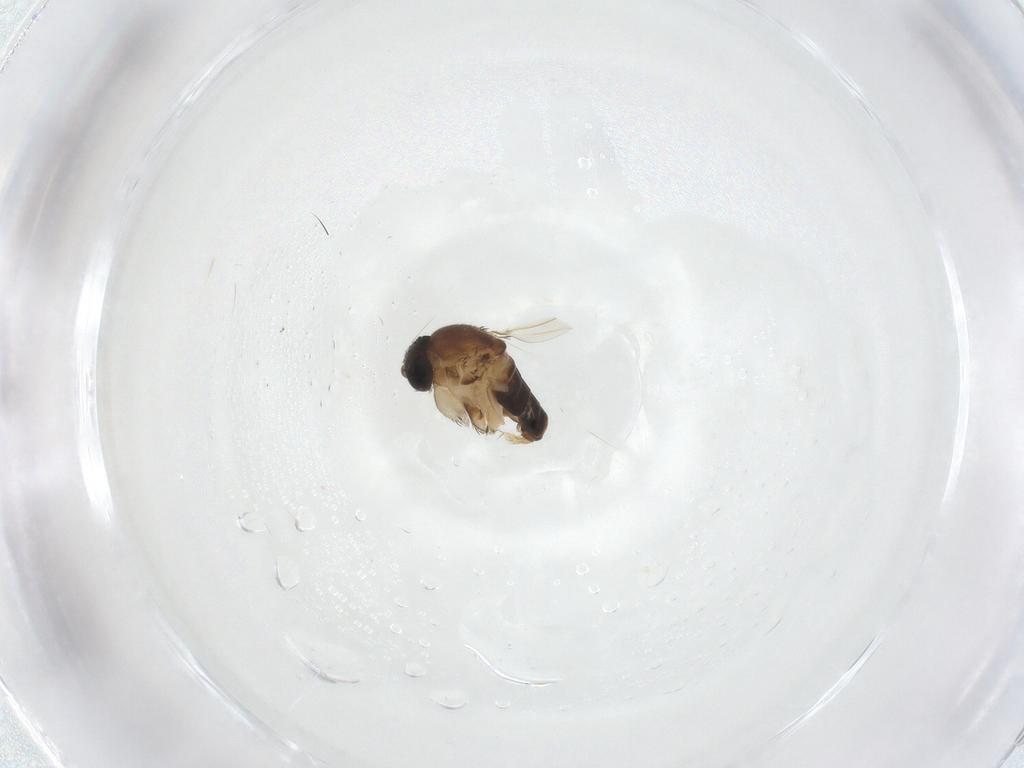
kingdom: Animalia
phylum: Arthropoda
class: Insecta
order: Diptera
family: Phoridae
